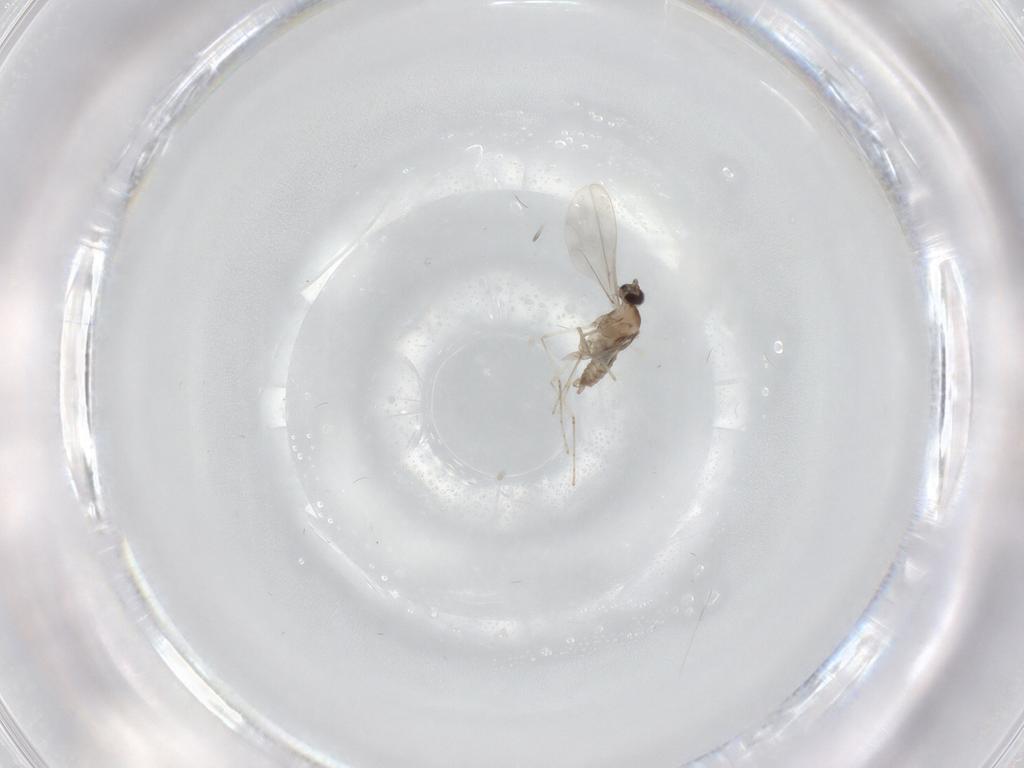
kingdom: Animalia
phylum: Arthropoda
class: Insecta
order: Diptera
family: Cecidomyiidae
